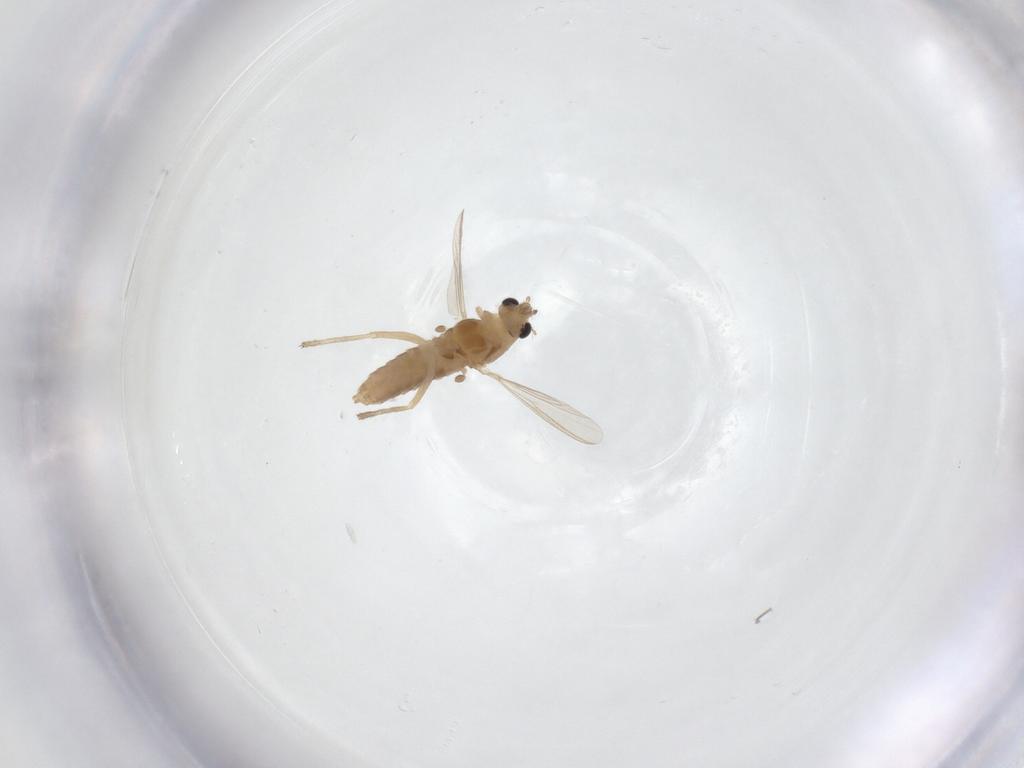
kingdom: Animalia
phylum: Arthropoda
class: Insecta
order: Diptera
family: Chironomidae
